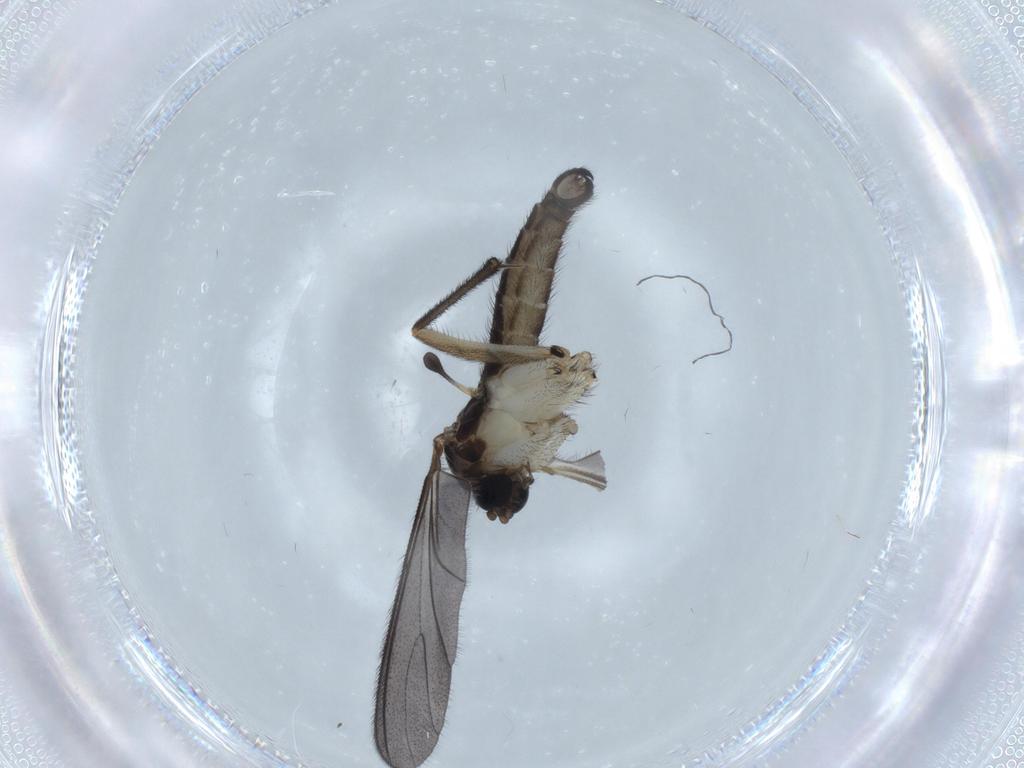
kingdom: Animalia
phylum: Arthropoda
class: Insecta
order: Diptera
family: Sciaridae
